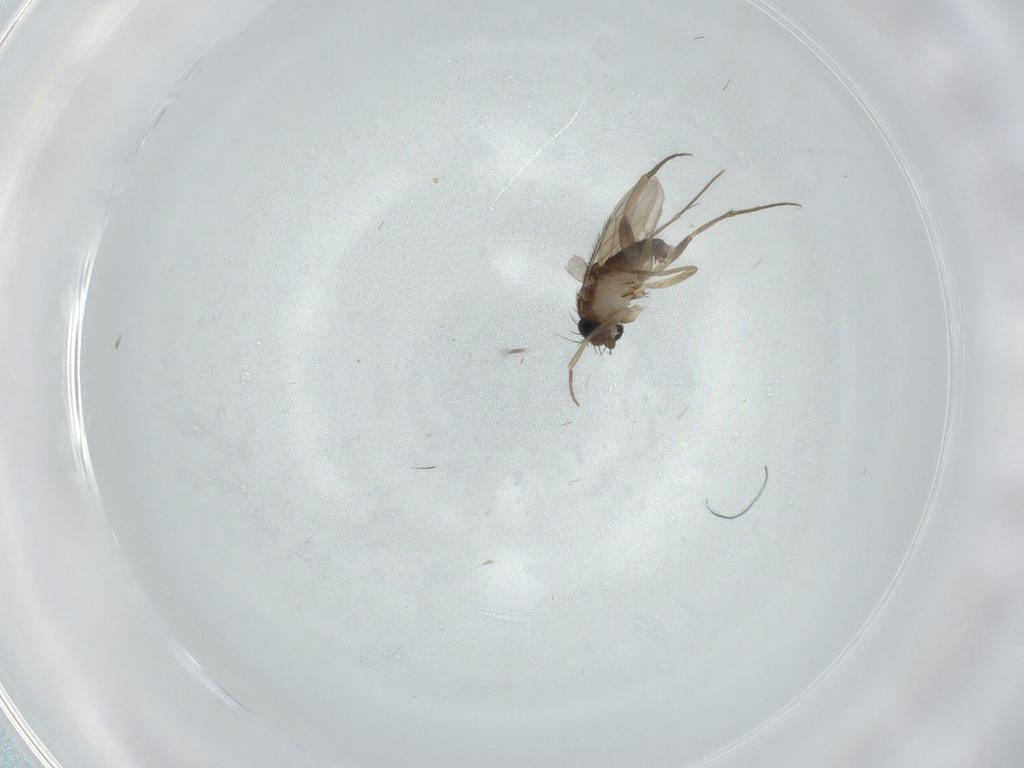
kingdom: Animalia
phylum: Arthropoda
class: Insecta
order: Diptera
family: Phoridae
